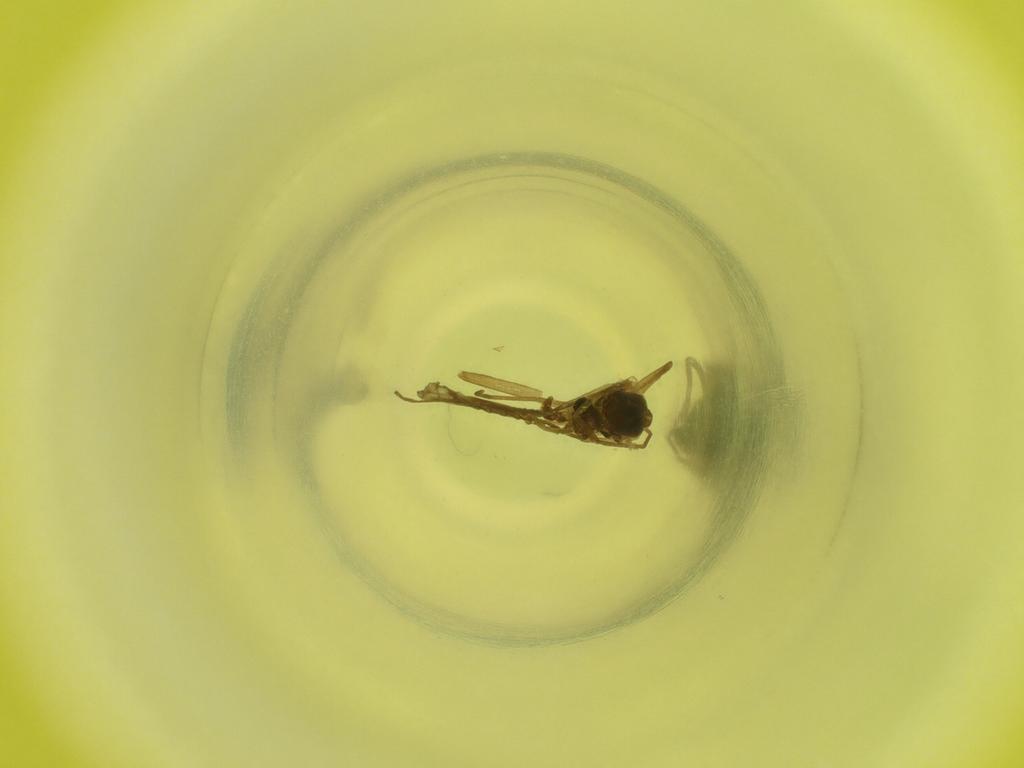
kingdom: Animalia
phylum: Arthropoda
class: Insecta
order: Diptera
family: Cecidomyiidae
